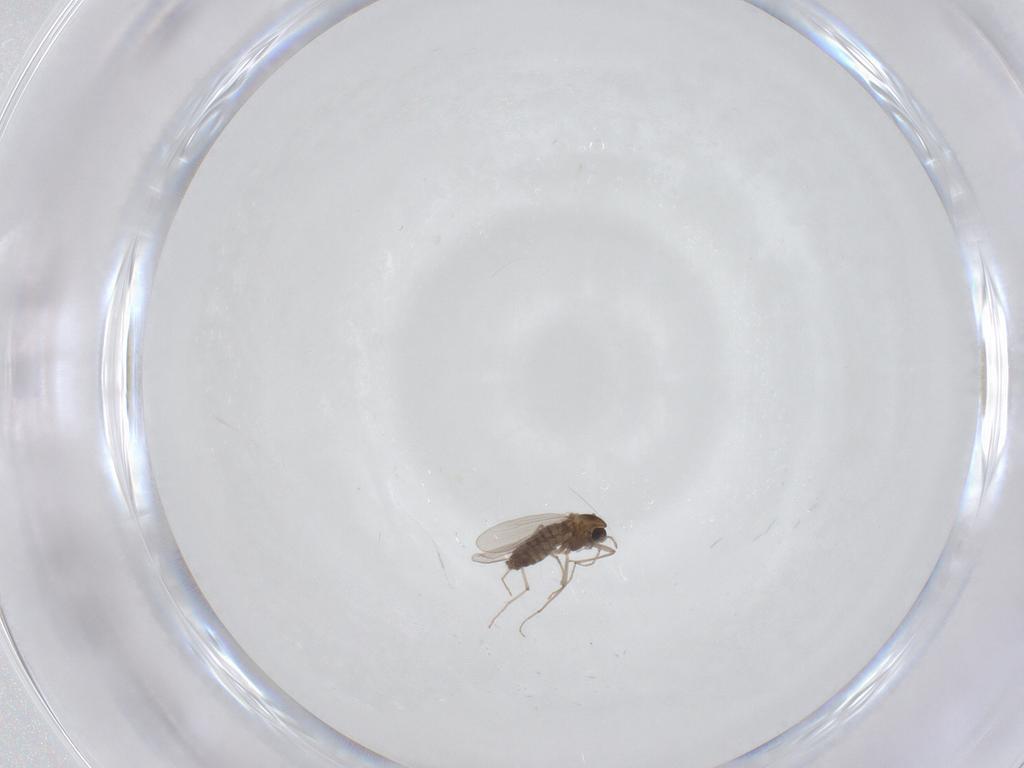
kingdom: Animalia
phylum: Arthropoda
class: Insecta
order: Diptera
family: Chironomidae
